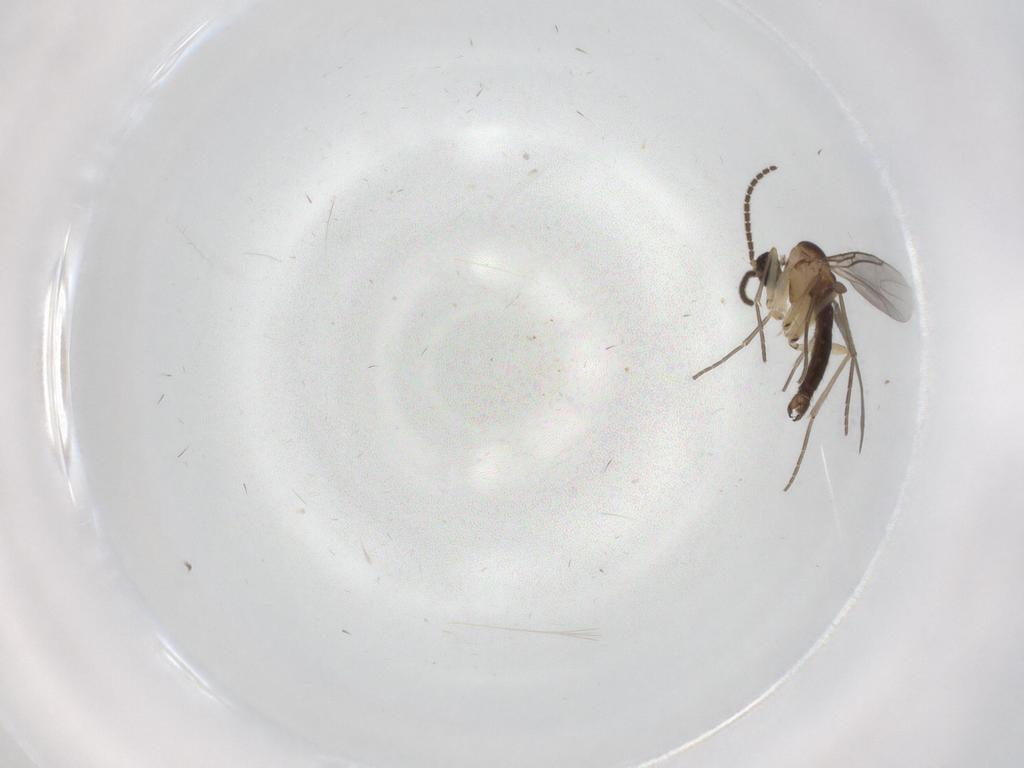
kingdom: Animalia
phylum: Arthropoda
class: Insecta
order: Diptera
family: Sciaridae
